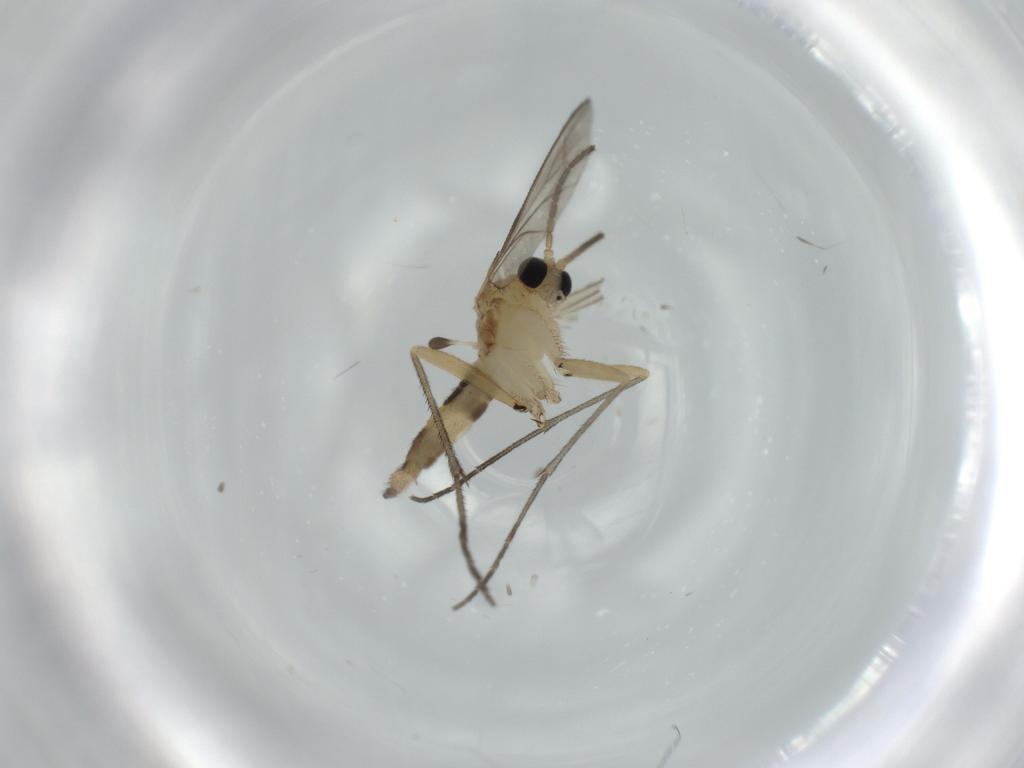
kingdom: Animalia
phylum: Arthropoda
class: Insecta
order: Diptera
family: Sciaridae
